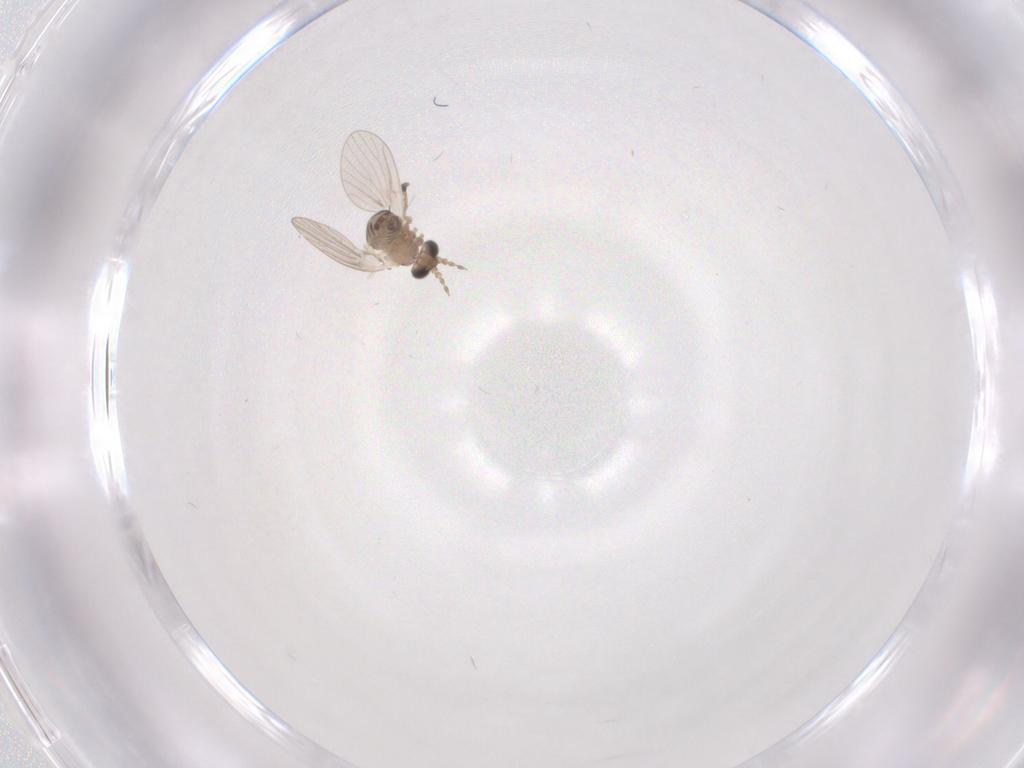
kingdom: Animalia
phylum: Arthropoda
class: Insecta
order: Diptera
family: Psychodidae
